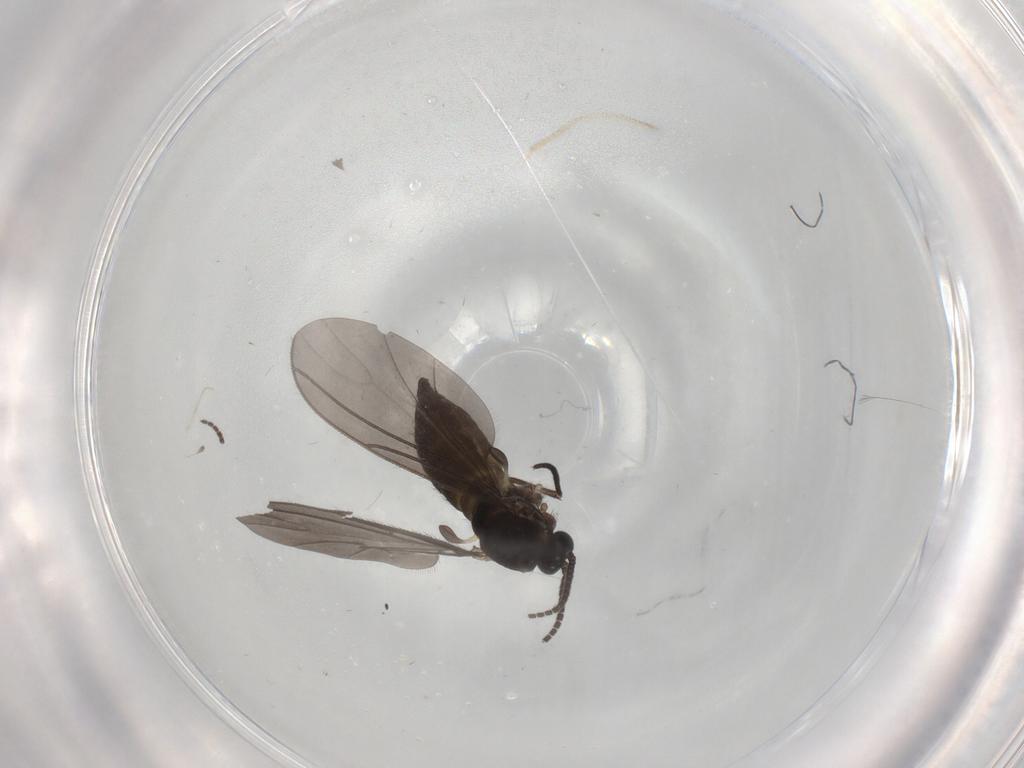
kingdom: Animalia
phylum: Arthropoda
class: Insecta
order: Diptera
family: Sciaridae
